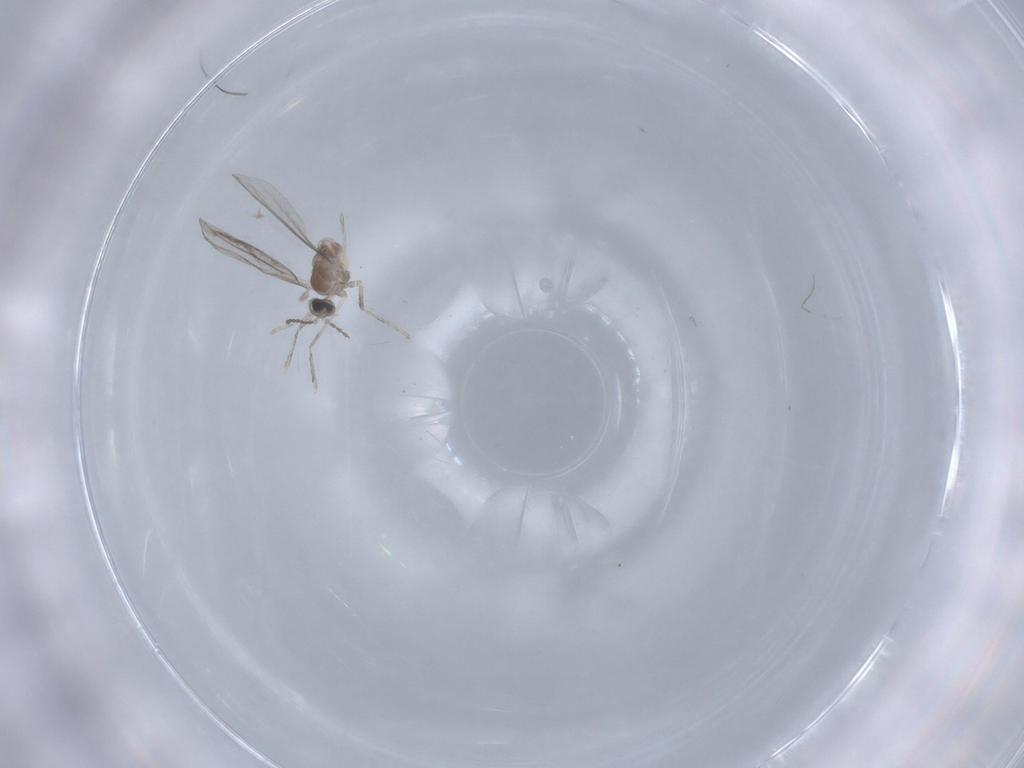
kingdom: Animalia
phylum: Arthropoda
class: Insecta
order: Diptera
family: Cecidomyiidae
